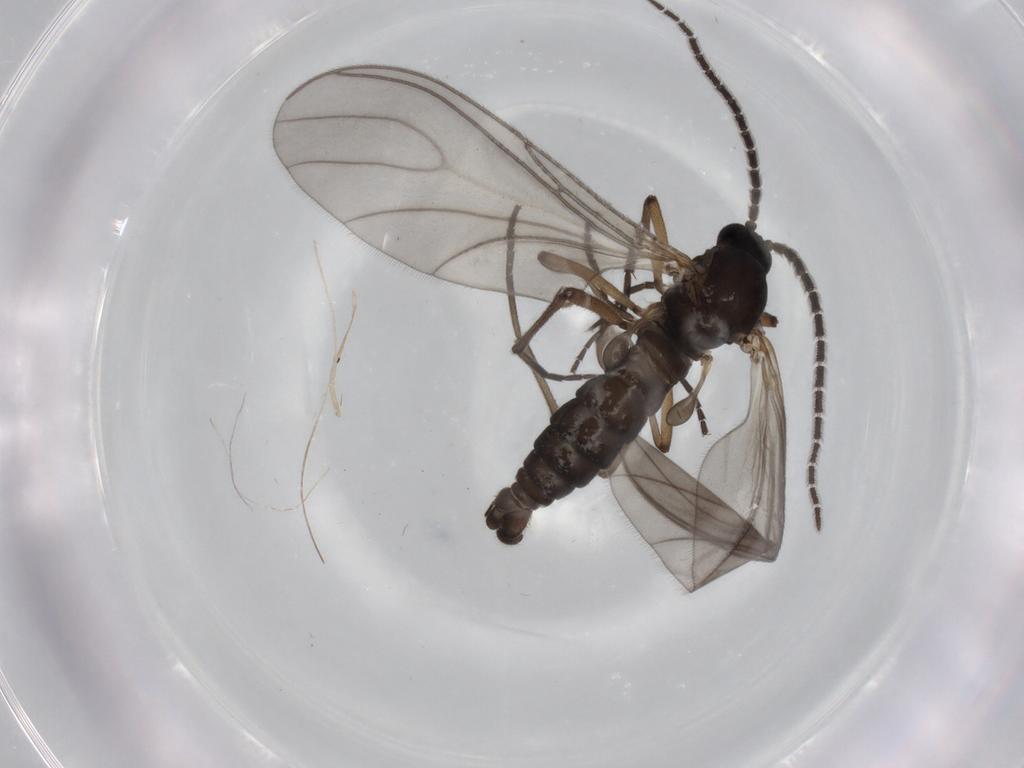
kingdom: Animalia
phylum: Arthropoda
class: Insecta
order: Diptera
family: Sciaridae
